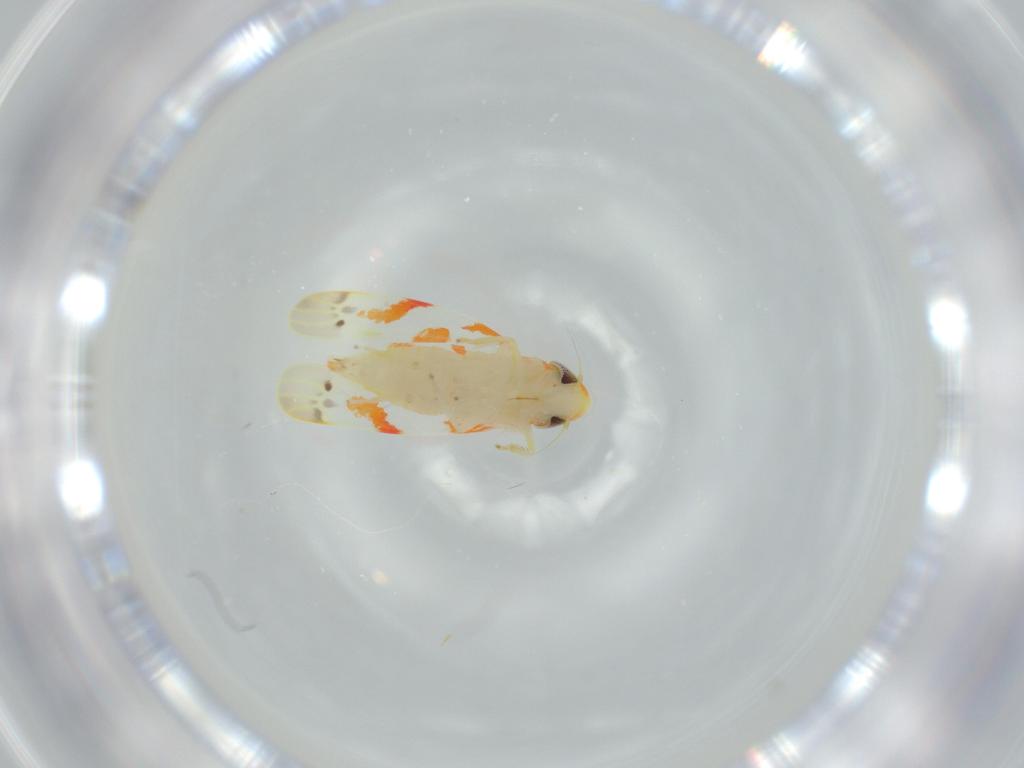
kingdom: Animalia
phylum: Arthropoda
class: Insecta
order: Hemiptera
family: Cicadellidae
